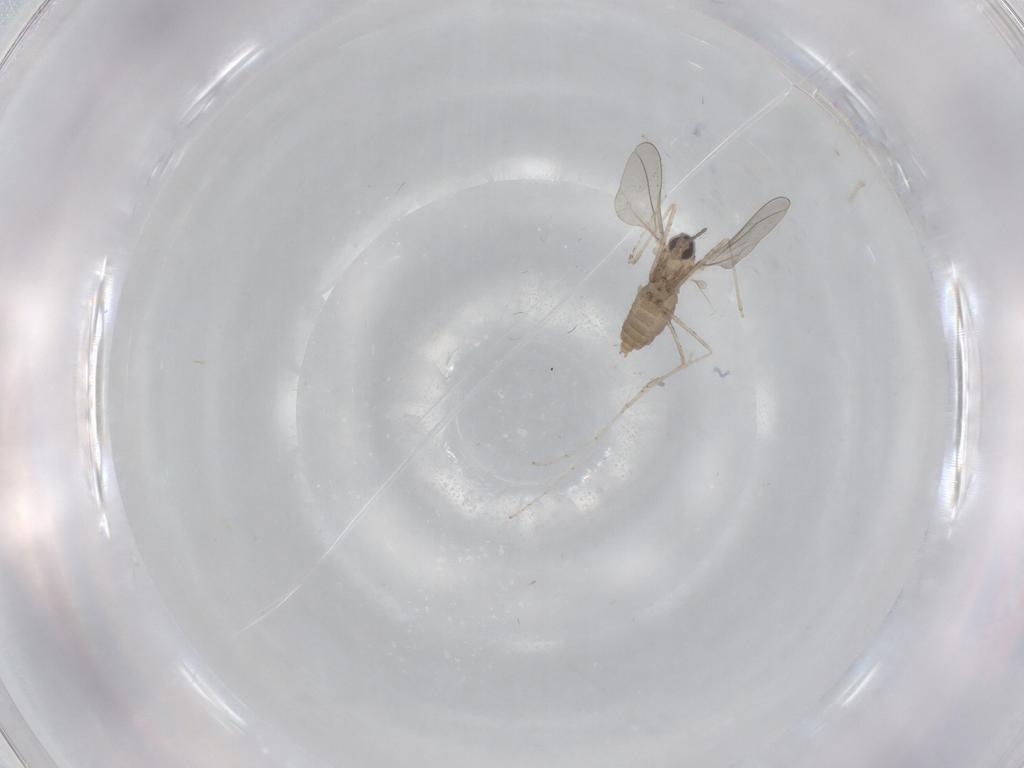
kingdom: Animalia
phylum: Arthropoda
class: Insecta
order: Diptera
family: Cecidomyiidae
